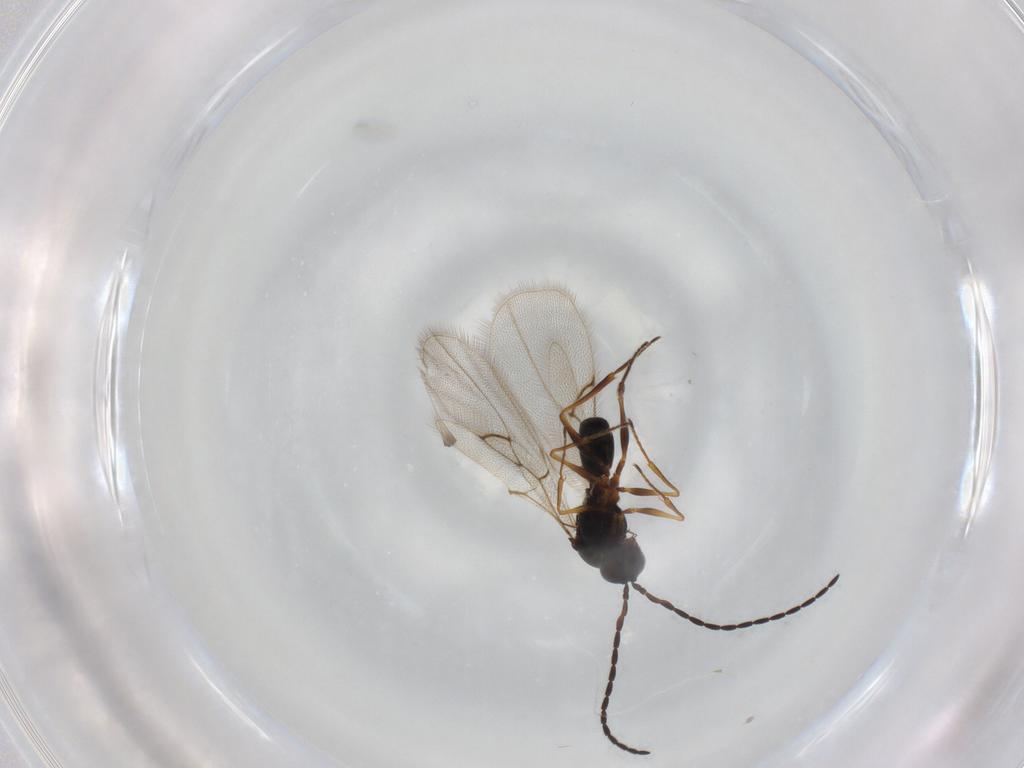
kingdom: Animalia
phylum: Arthropoda
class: Insecta
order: Hymenoptera
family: Figitidae
